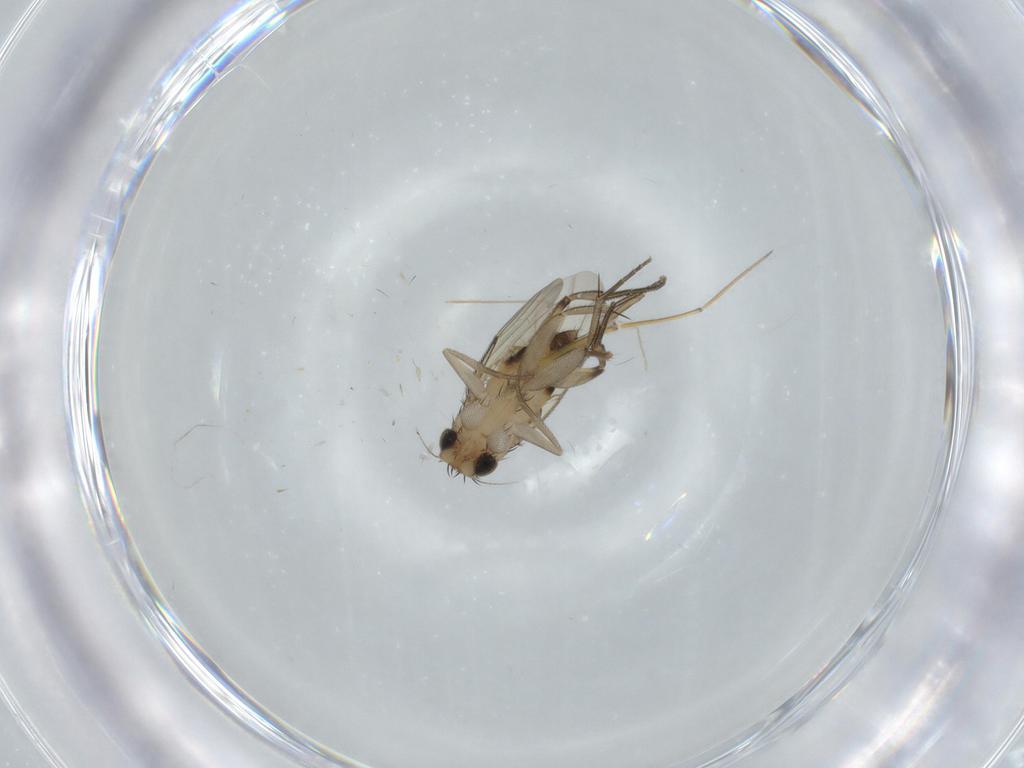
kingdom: Animalia
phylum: Arthropoda
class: Insecta
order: Diptera
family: Phoridae
